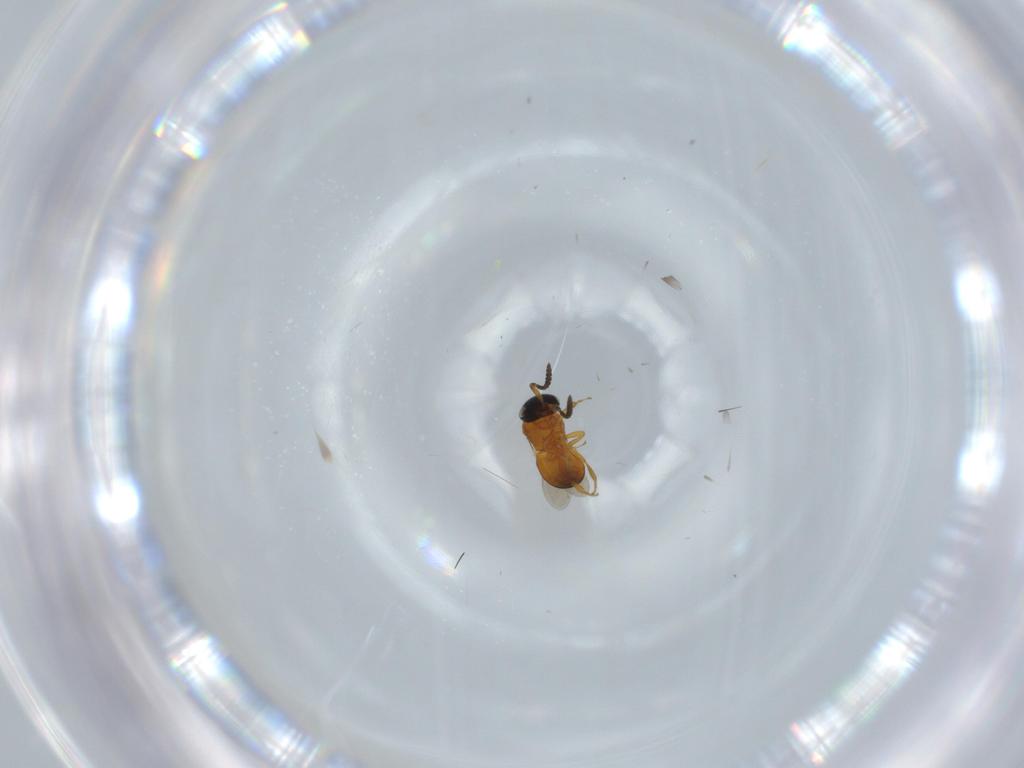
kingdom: Animalia
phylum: Arthropoda
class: Insecta
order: Hymenoptera
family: Scelionidae
